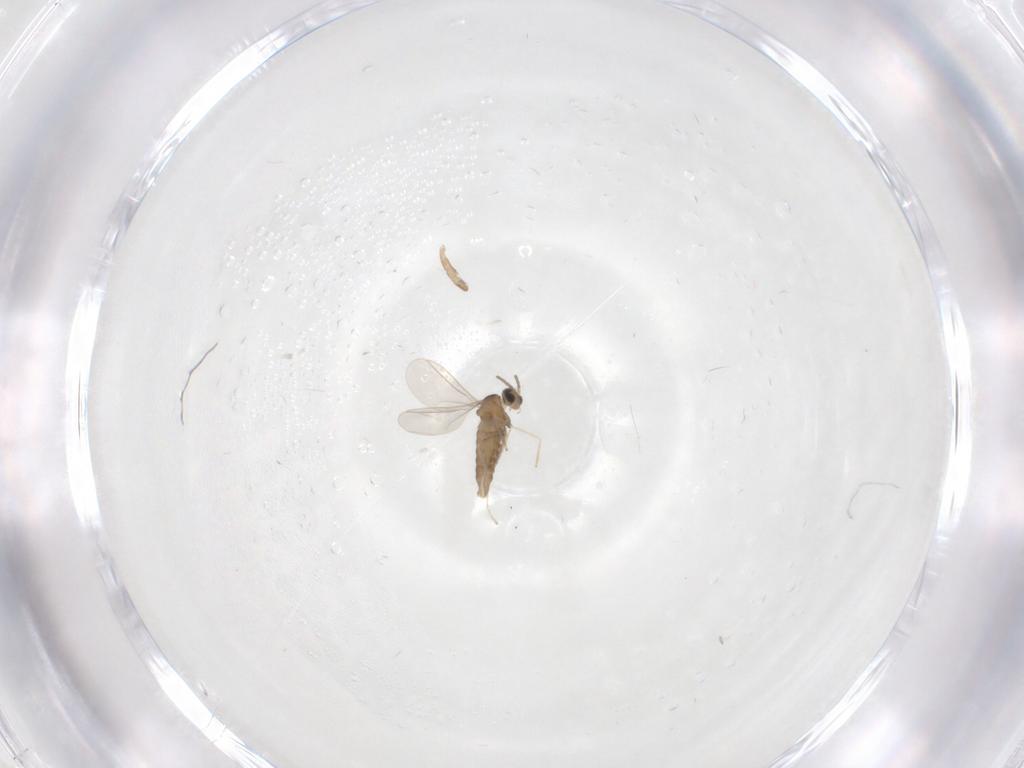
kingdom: Animalia
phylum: Arthropoda
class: Insecta
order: Diptera
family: Cecidomyiidae
